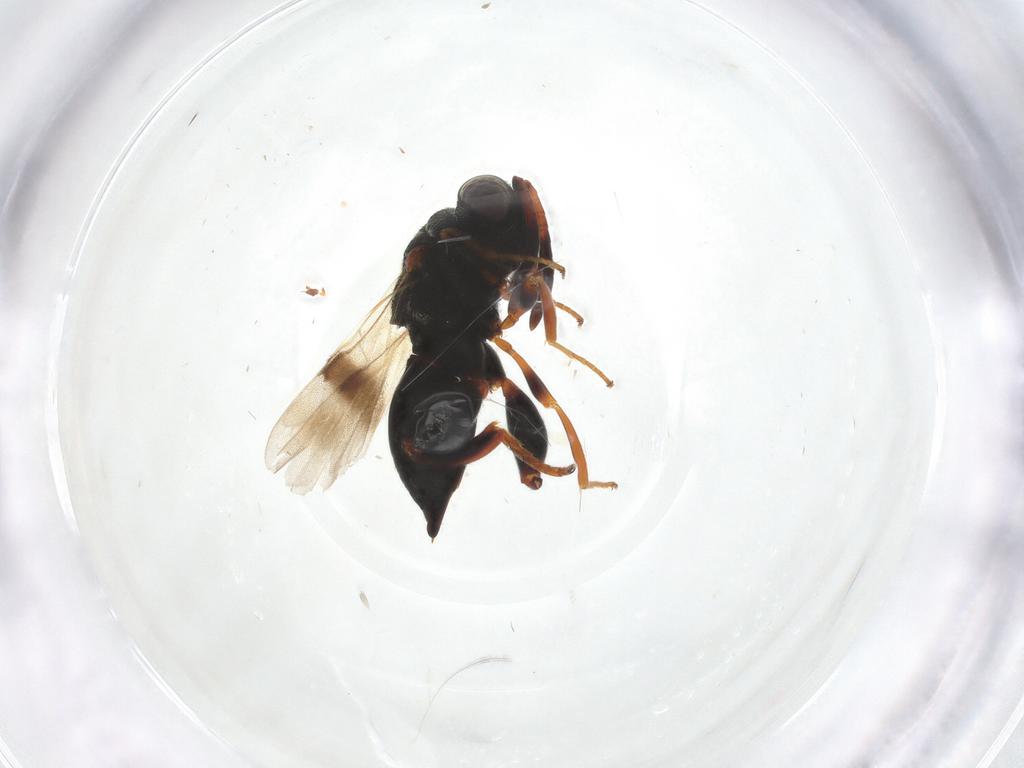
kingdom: Animalia
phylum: Arthropoda
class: Insecta
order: Hymenoptera
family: Chalcididae
